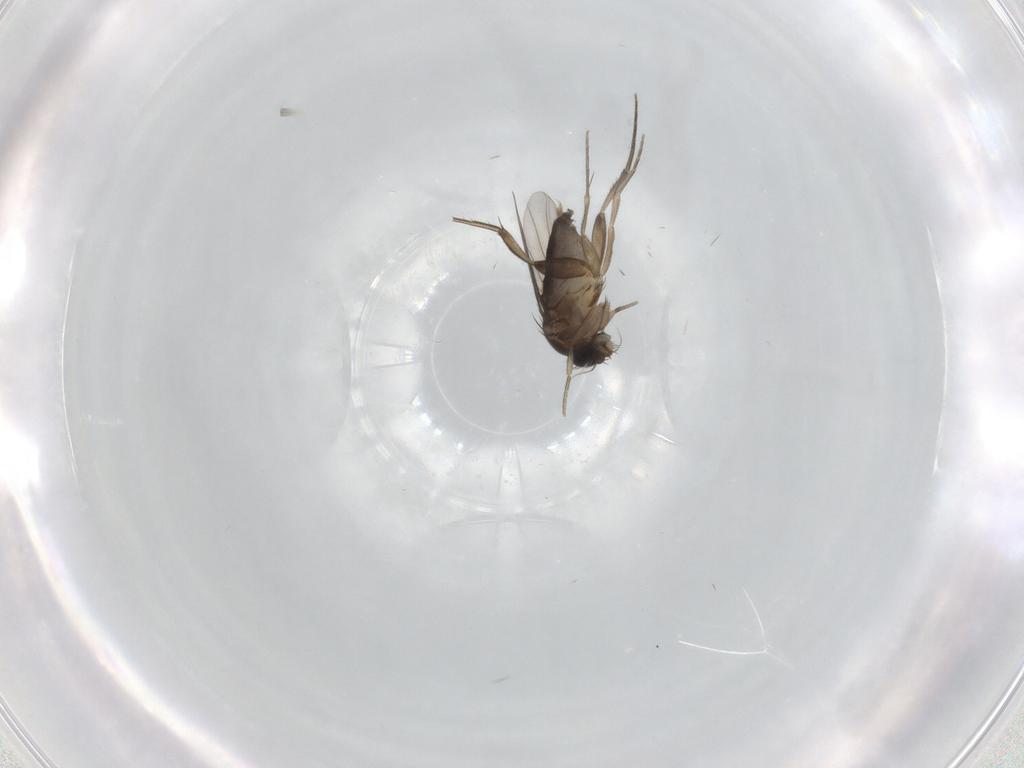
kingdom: Animalia
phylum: Arthropoda
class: Insecta
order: Diptera
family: Phoridae
